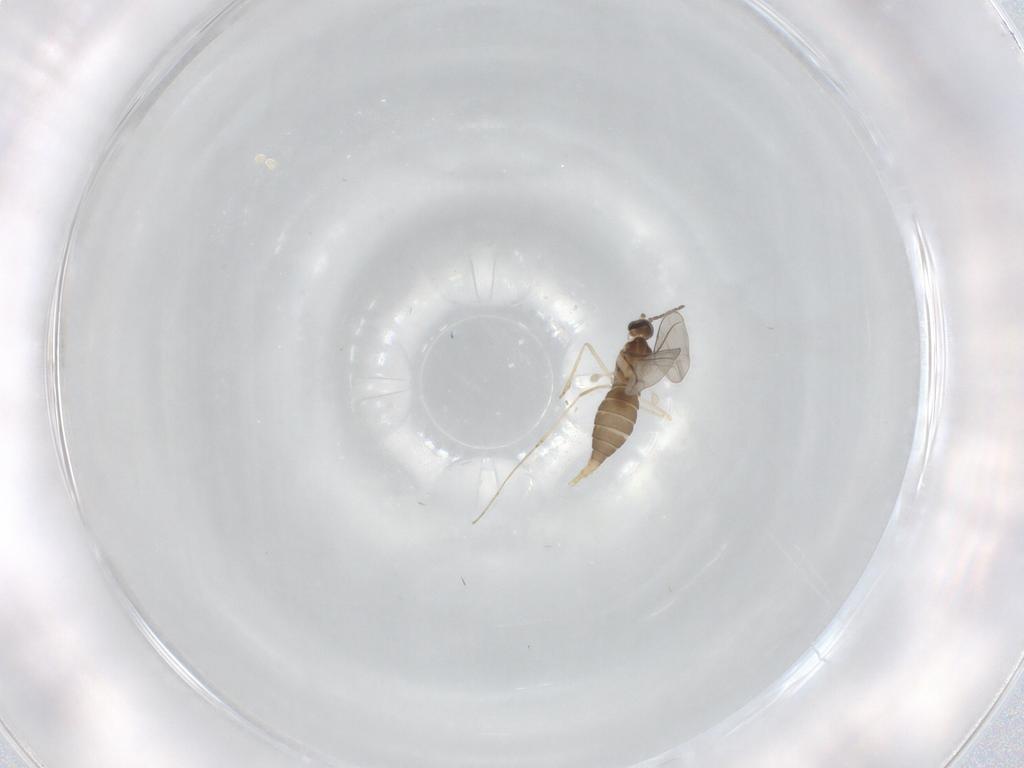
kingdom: Animalia
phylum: Arthropoda
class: Insecta
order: Diptera
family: Cecidomyiidae
